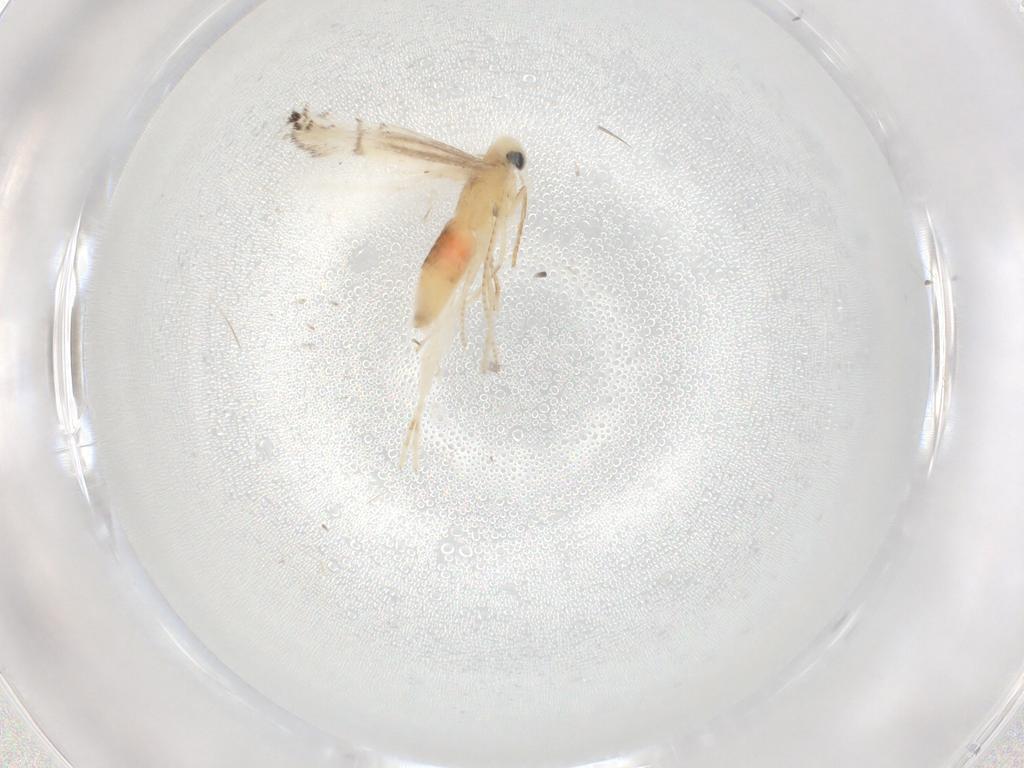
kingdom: Animalia
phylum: Arthropoda
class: Insecta
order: Lepidoptera
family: Gracillariidae
